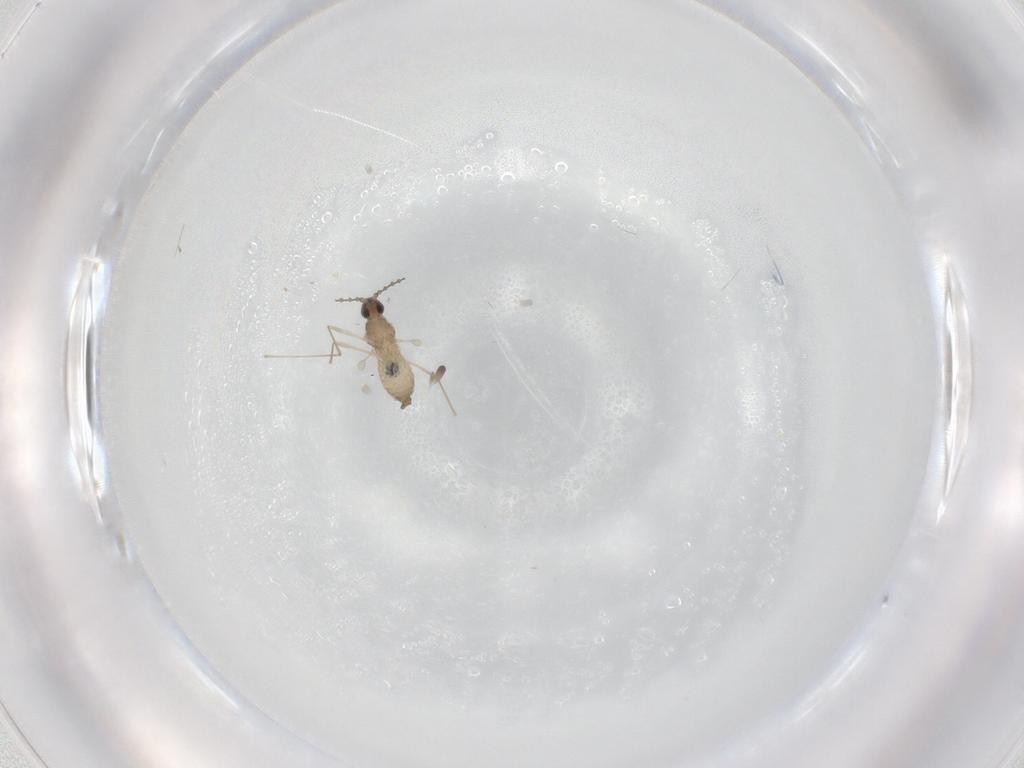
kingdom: Animalia
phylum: Arthropoda
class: Insecta
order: Diptera
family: Cecidomyiidae
